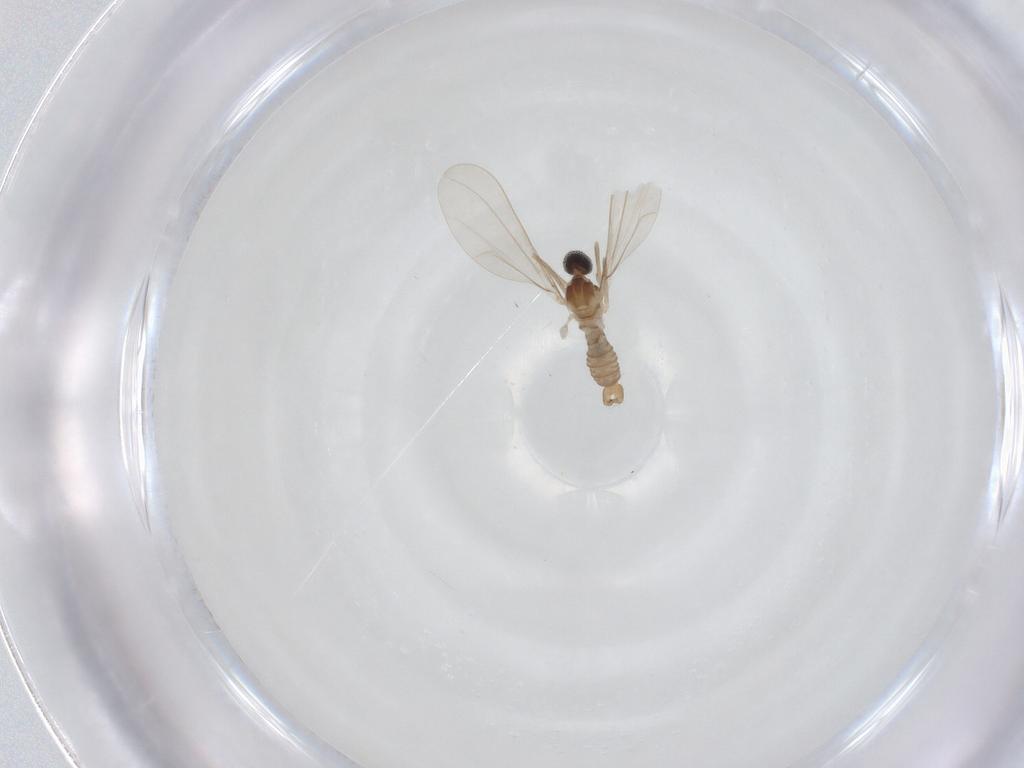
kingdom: Animalia
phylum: Arthropoda
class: Insecta
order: Diptera
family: Cecidomyiidae
